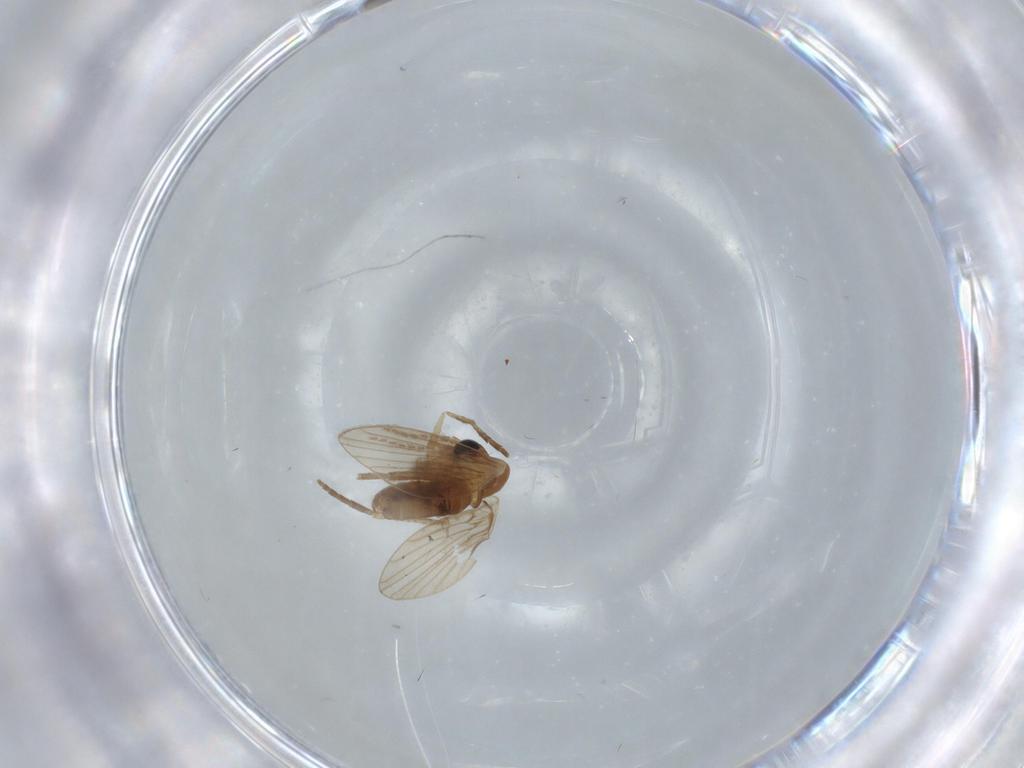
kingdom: Animalia
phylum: Arthropoda
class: Insecta
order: Diptera
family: Psychodidae
